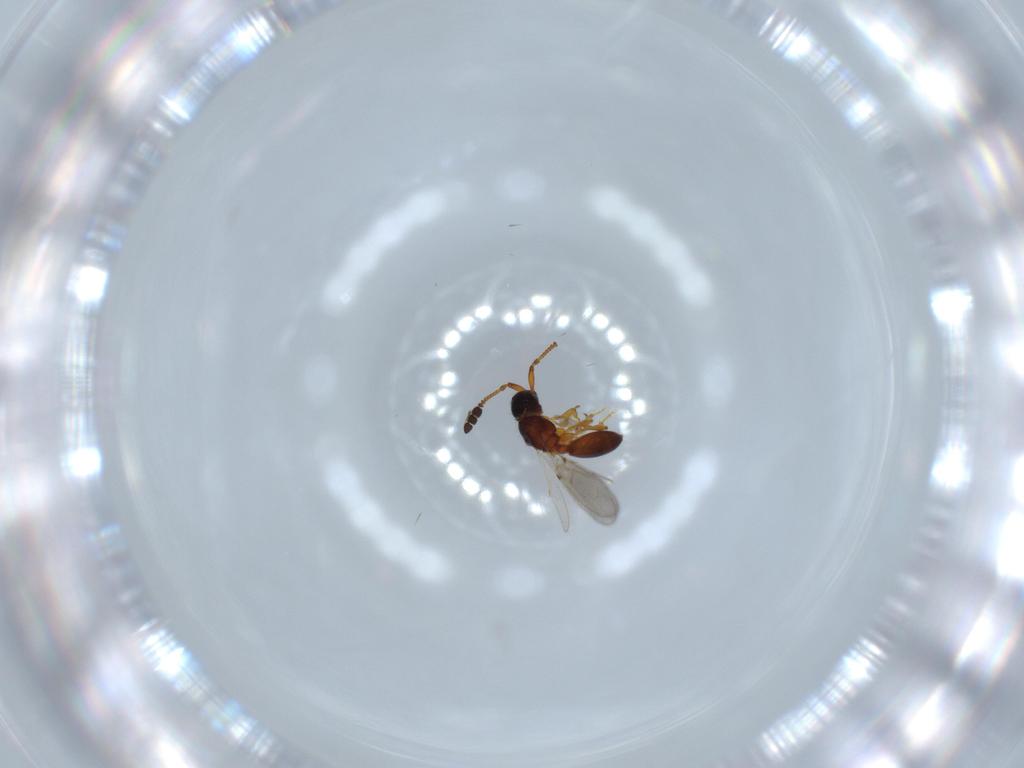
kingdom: Animalia
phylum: Arthropoda
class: Insecta
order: Hymenoptera
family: Diapriidae
